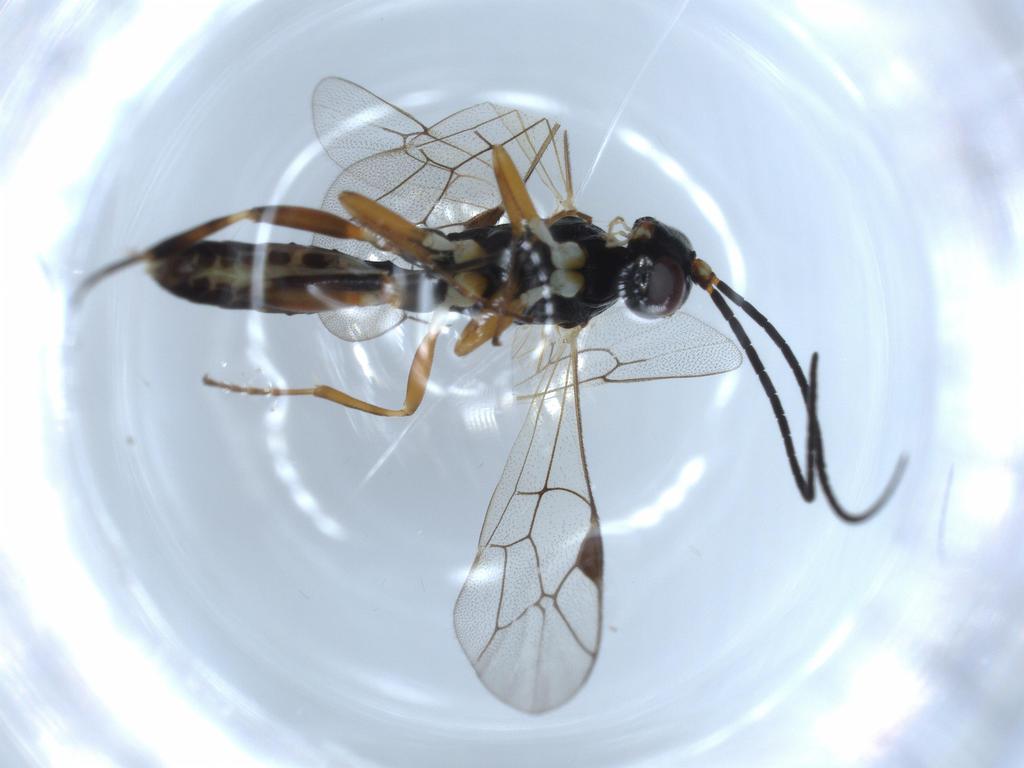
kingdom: Animalia
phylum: Arthropoda
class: Insecta
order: Hymenoptera
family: Ichneumonidae
